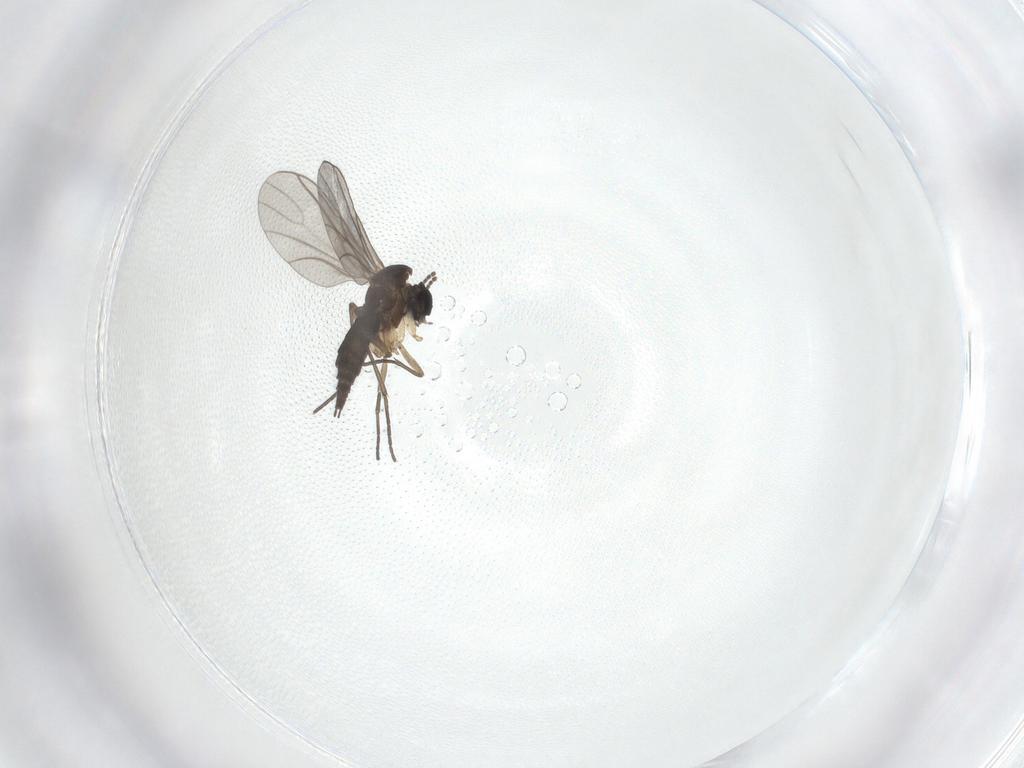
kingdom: Animalia
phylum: Arthropoda
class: Insecta
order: Diptera
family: Sciaridae
